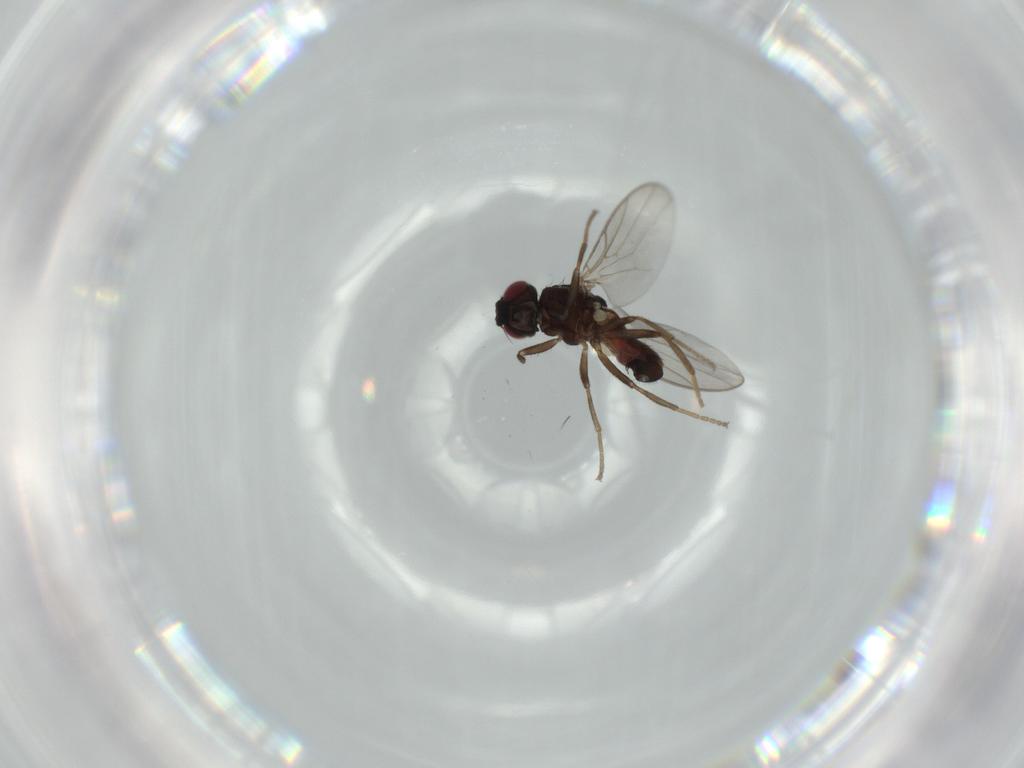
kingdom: Animalia
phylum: Arthropoda
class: Insecta
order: Diptera
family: Chloropidae
